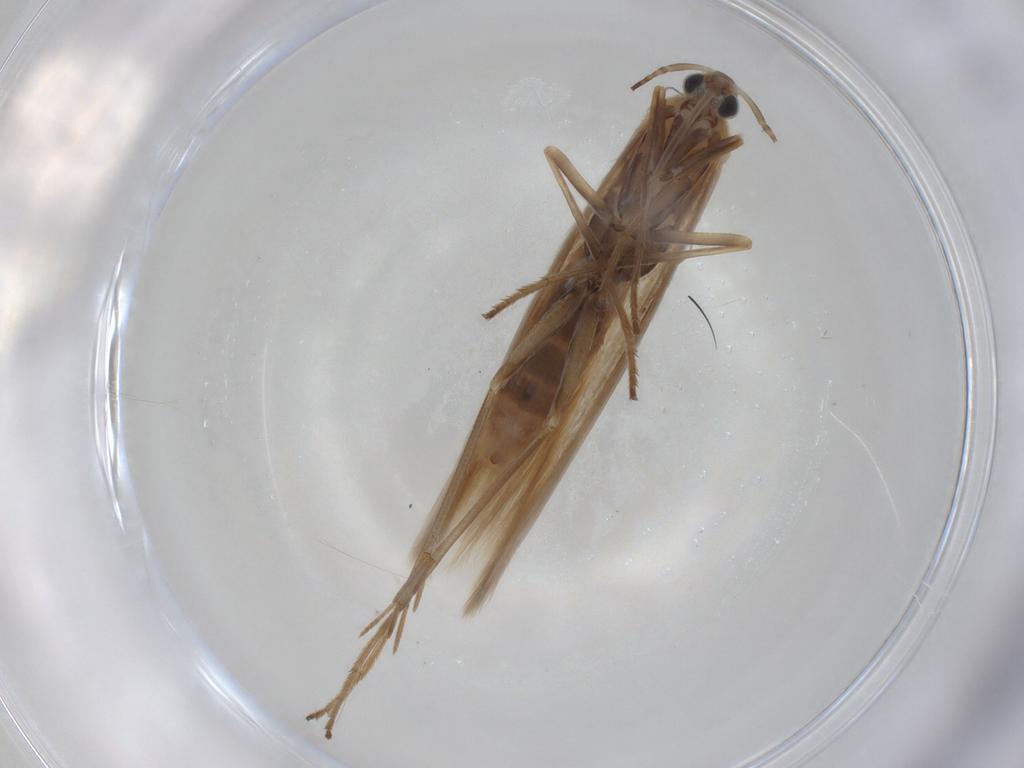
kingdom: Animalia
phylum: Arthropoda
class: Insecta
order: Lepidoptera
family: Coleophoridae
